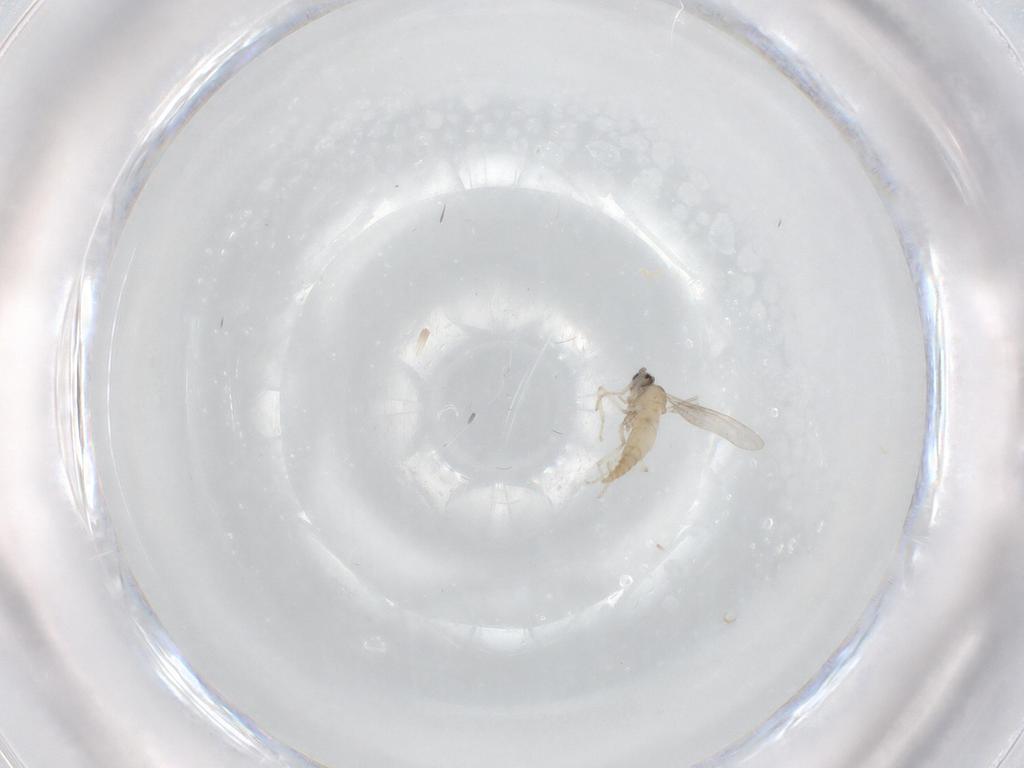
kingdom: Animalia
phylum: Arthropoda
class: Insecta
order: Diptera
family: Cecidomyiidae
